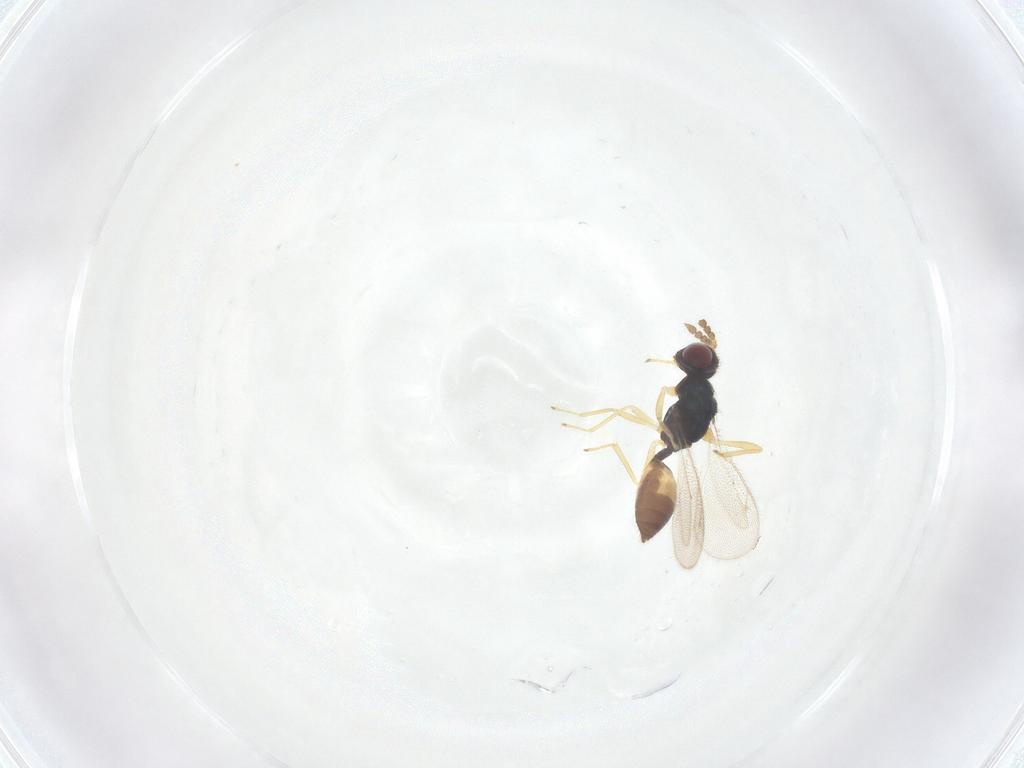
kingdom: Animalia
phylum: Arthropoda
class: Insecta
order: Hymenoptera
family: Eulophidae
